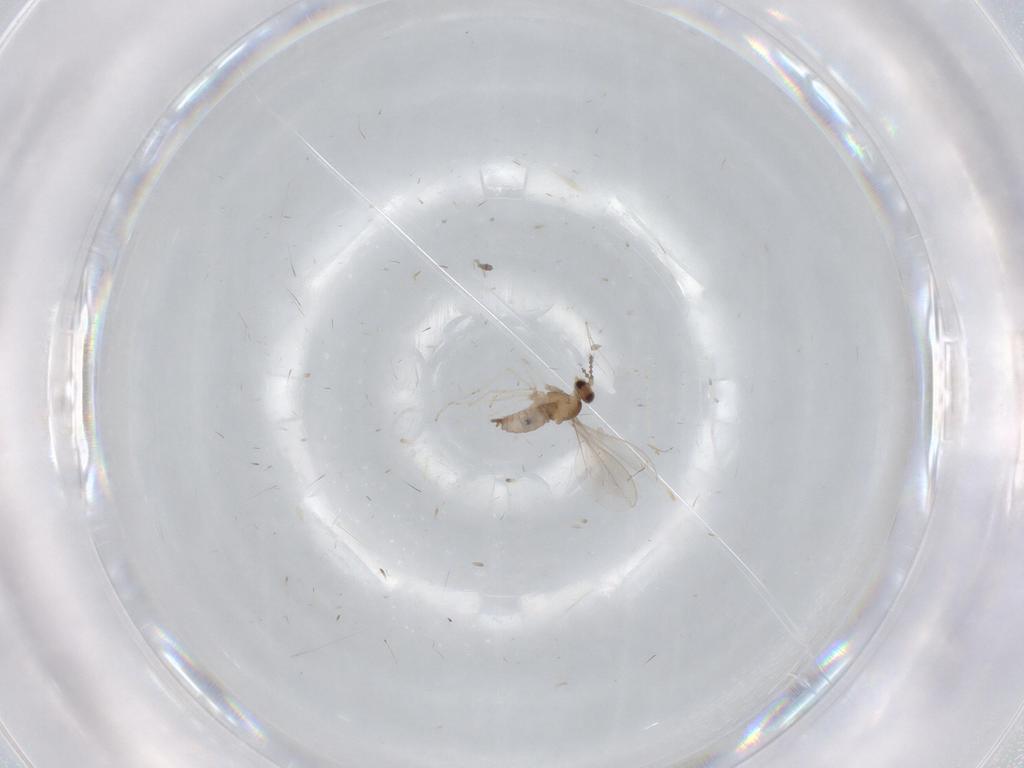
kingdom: Animalia
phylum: Arthropoda
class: Insecta
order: Diptera
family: Cecidomyiidae
